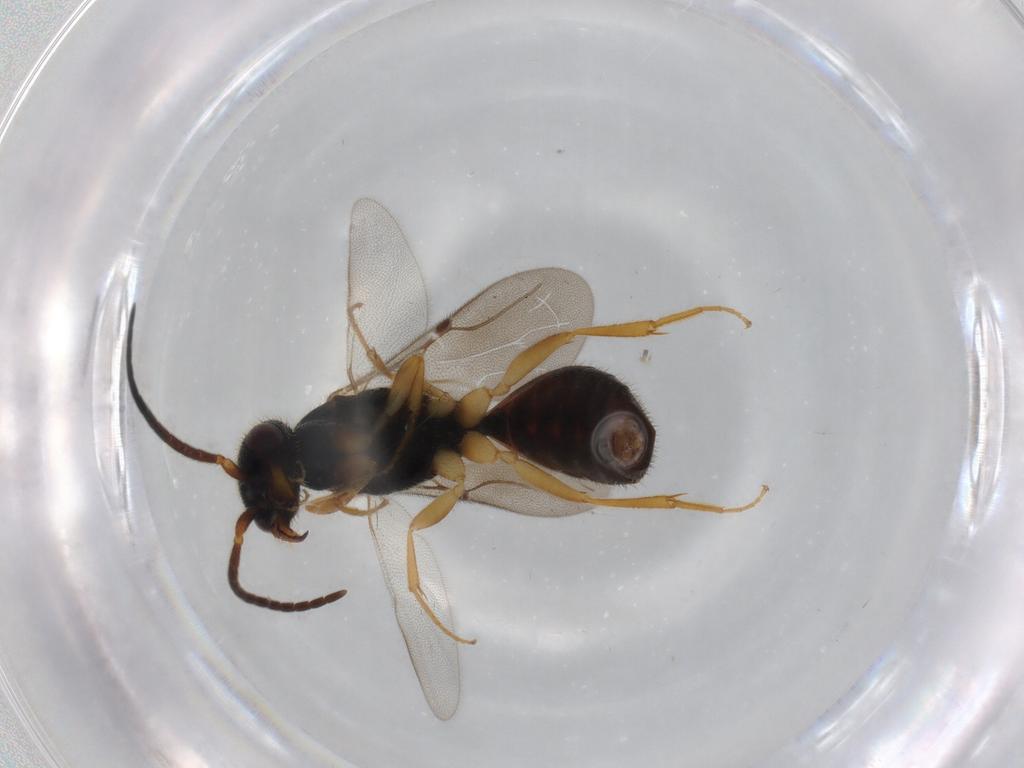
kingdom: Animalia
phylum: Arthropoda
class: Insecta
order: Hymenoptera
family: Bethylidae
